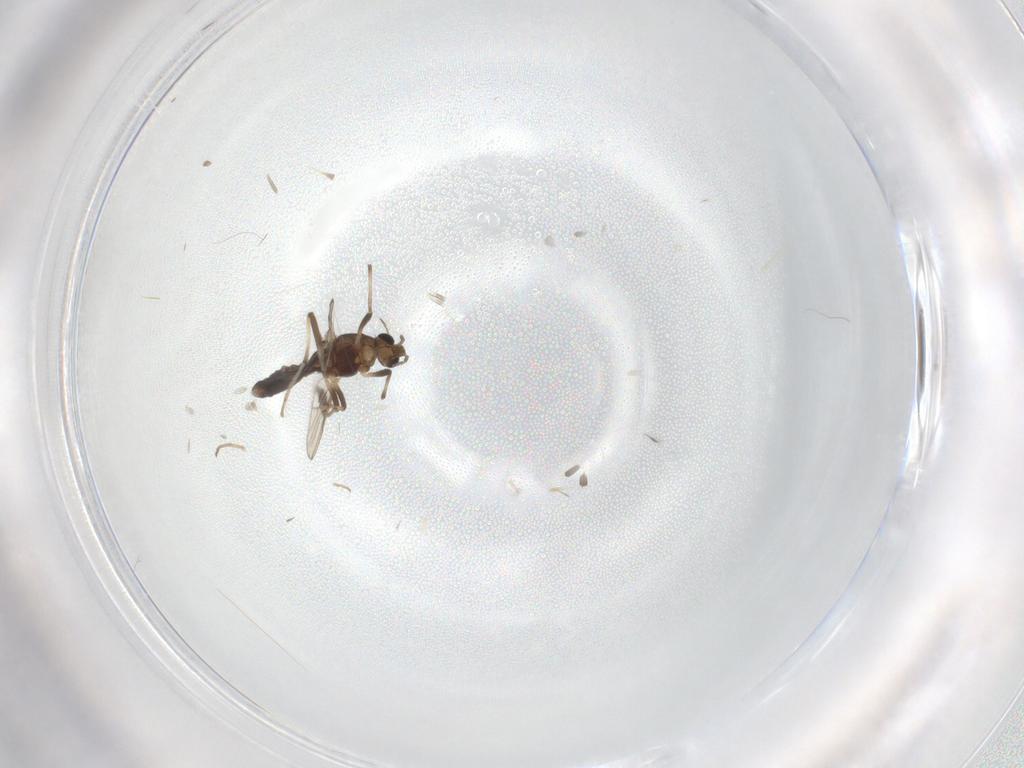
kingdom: Animalia
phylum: Arthropoda
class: Insecta
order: Diptera
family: Chironomidae
